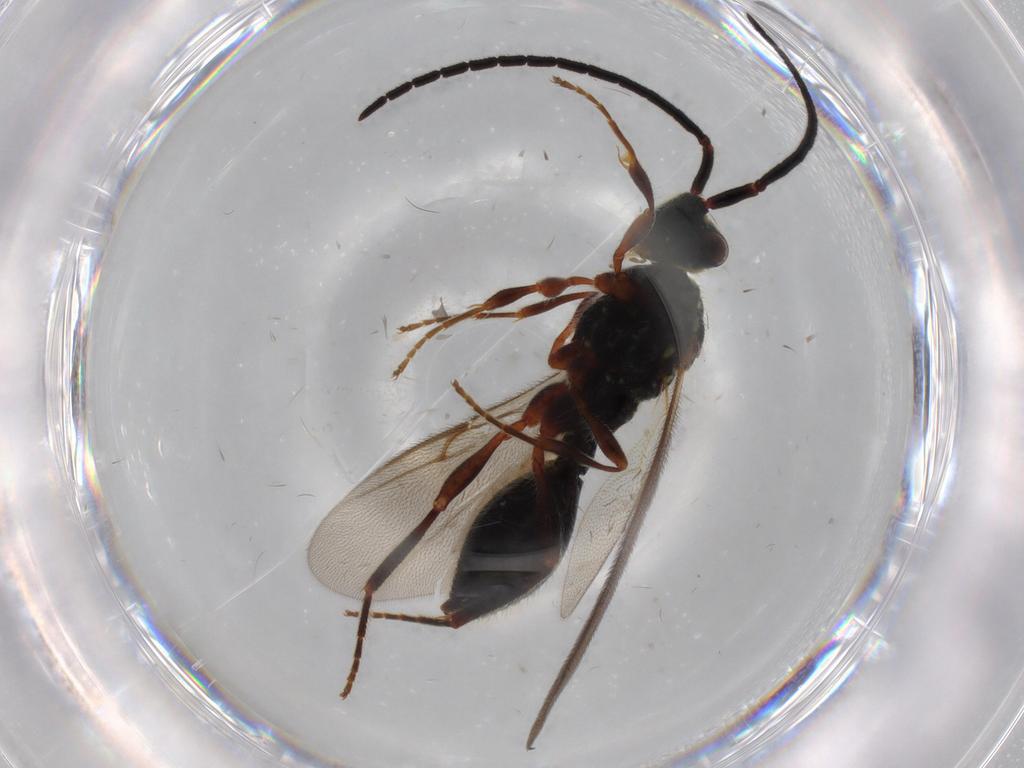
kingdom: Animalia
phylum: Arthropoda
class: Insecta
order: Hymenoptera
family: Diapriidae
